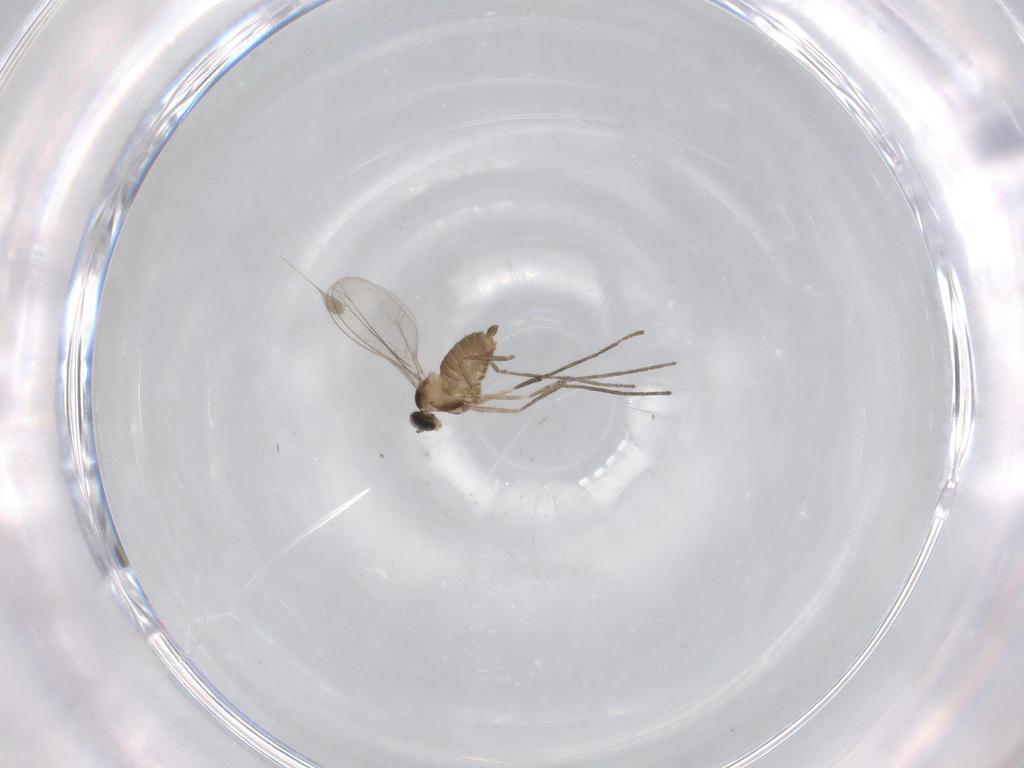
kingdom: Animalia
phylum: Arthropoda
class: Insecta
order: Diptera
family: Cecidomyiidae
